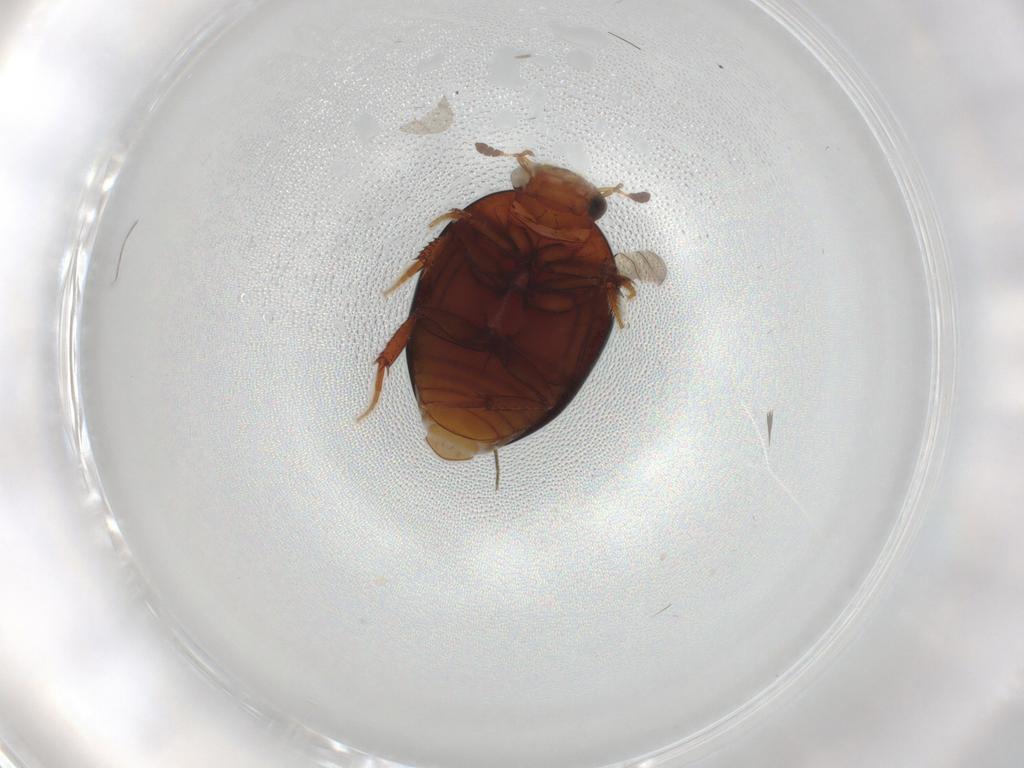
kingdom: Animalia
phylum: Arthropoda
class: Insecta
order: Coleoptera
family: Hydrophilidae
